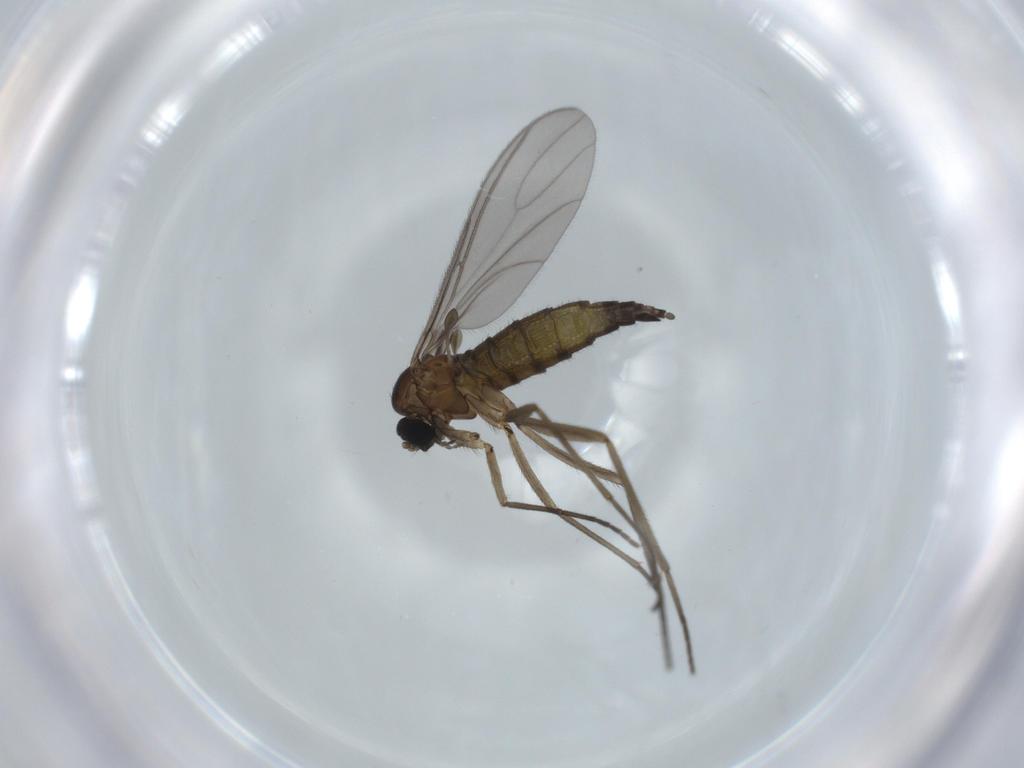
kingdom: Animalia
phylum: Arthropoda
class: Insecta
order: Diptera
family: Sciaridae
